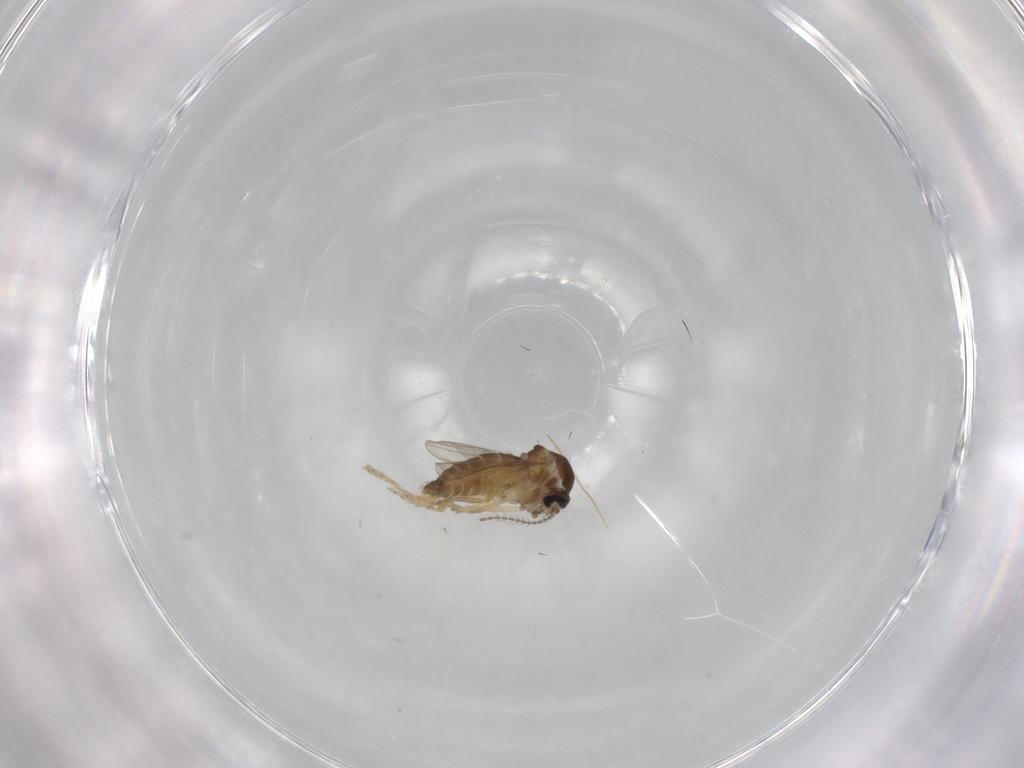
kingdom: Animalia
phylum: Arthropoda
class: Insecta
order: Diptera
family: Ceratopogonidae
